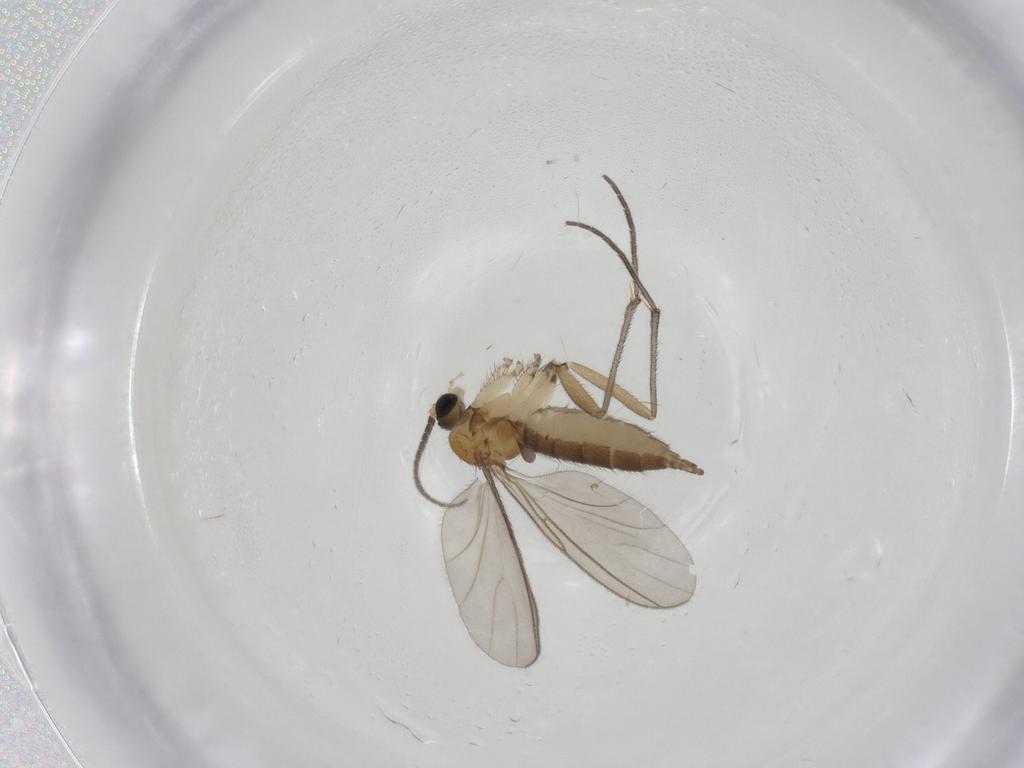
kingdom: Animalia
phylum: Arthropoda
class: Insecta
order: Diptera
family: Sciaridae
